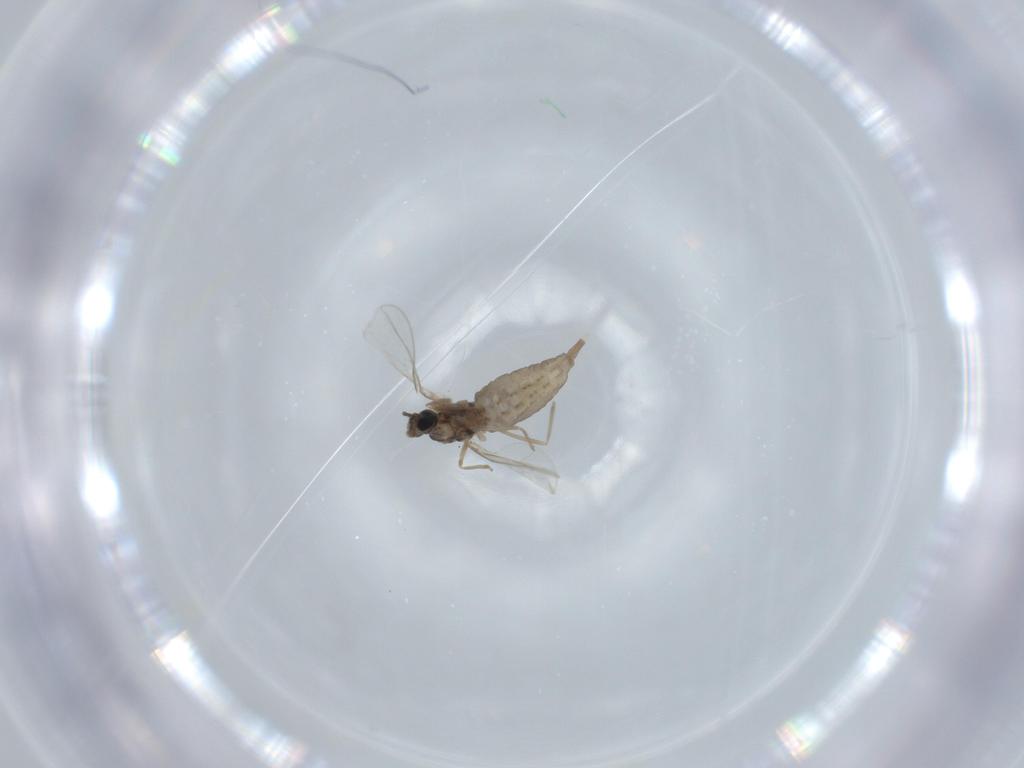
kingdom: Animalia
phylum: Arthropoda
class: Insecta
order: Diptera
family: Cecidomyiidae
